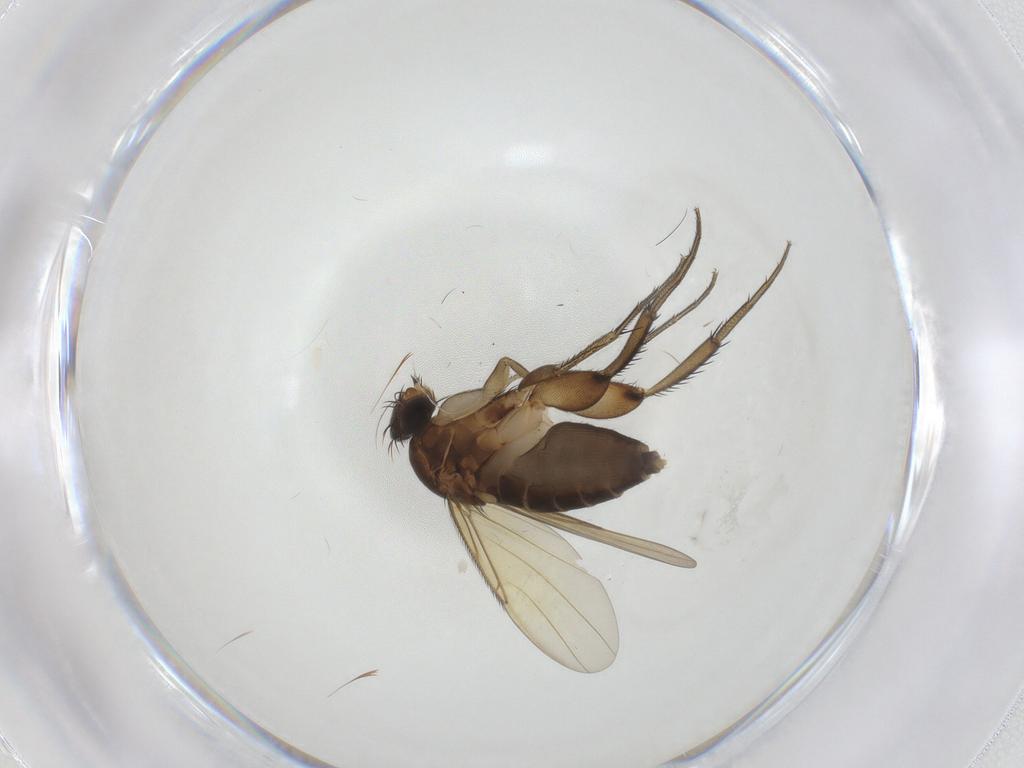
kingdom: Animalia
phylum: Arthropoda
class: Insecta
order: Diptera
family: Phoridae
